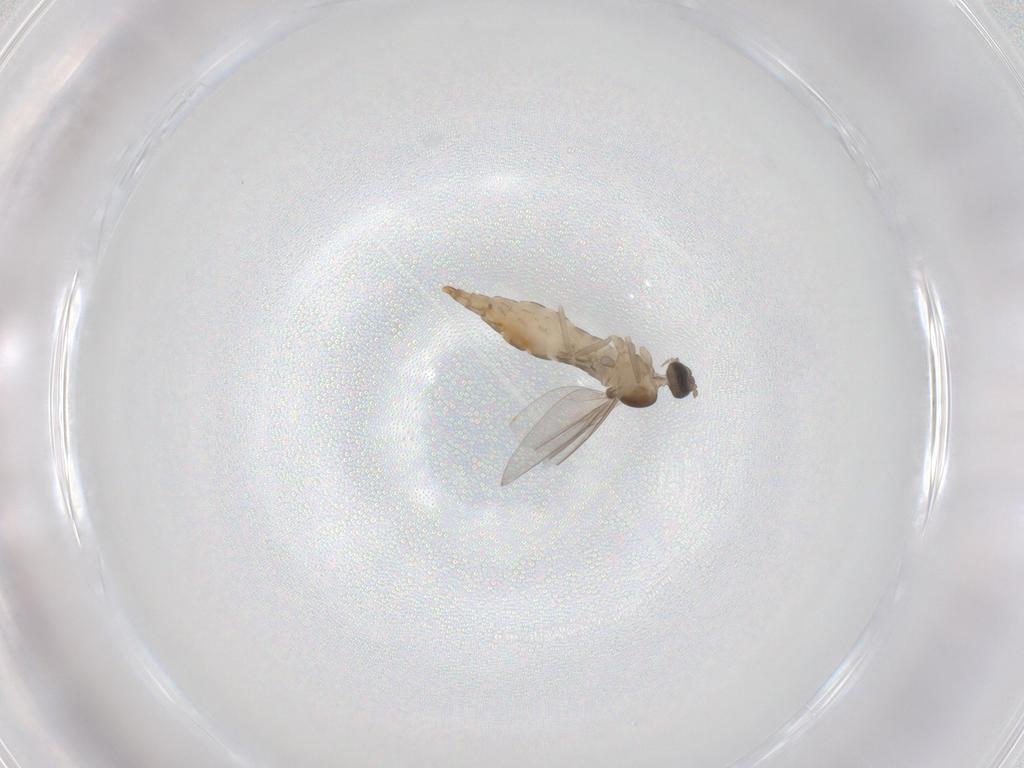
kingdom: Animalia
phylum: Arthropoda
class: Insecta
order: Diptera
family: Cecidomyiidae
